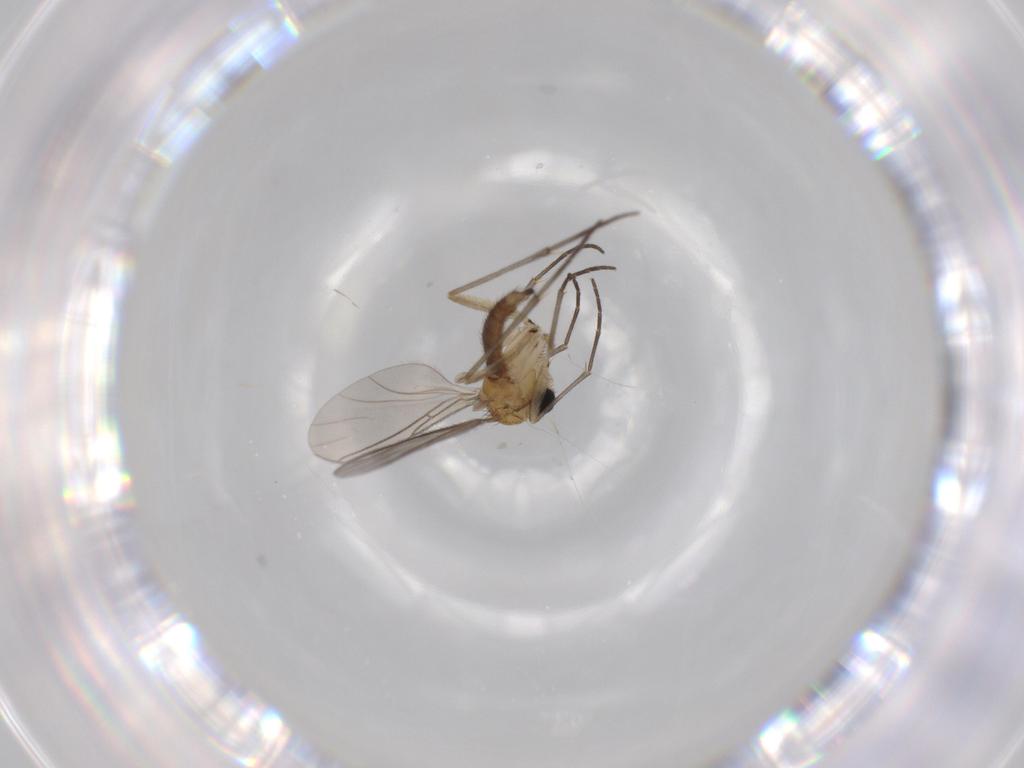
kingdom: Animalia
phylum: Arthropoda
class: Insecta
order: Diptera
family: Sciaridae
